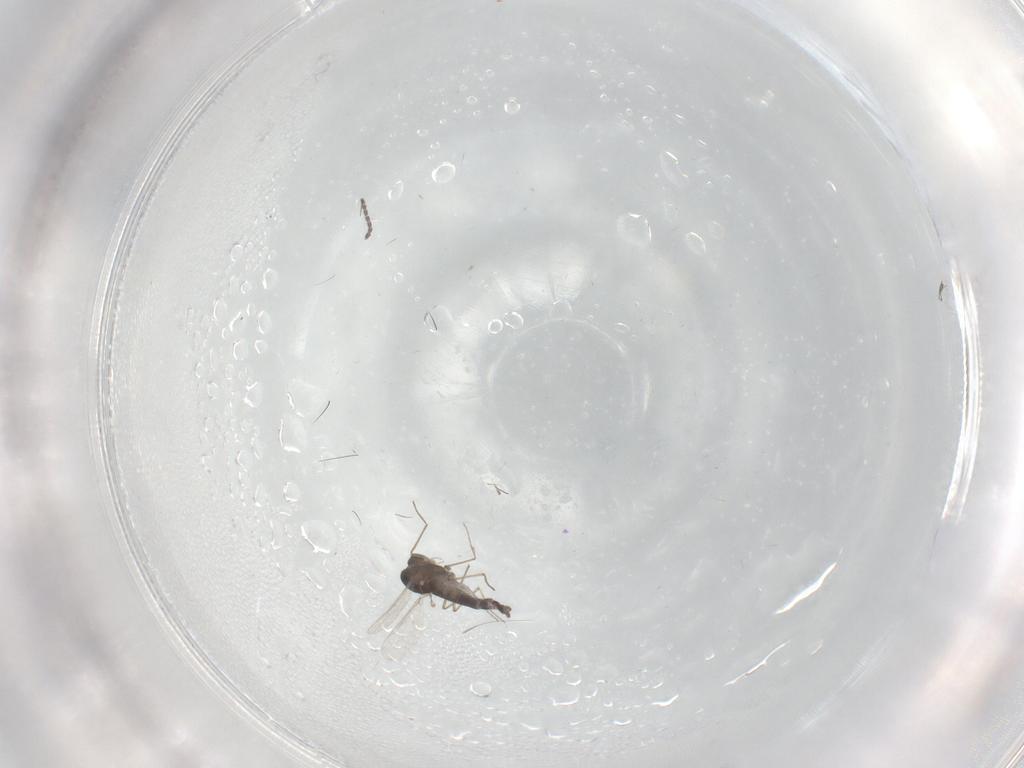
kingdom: Animalia
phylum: Arthropoda
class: Insecta
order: Diptera
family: Chironomidae
